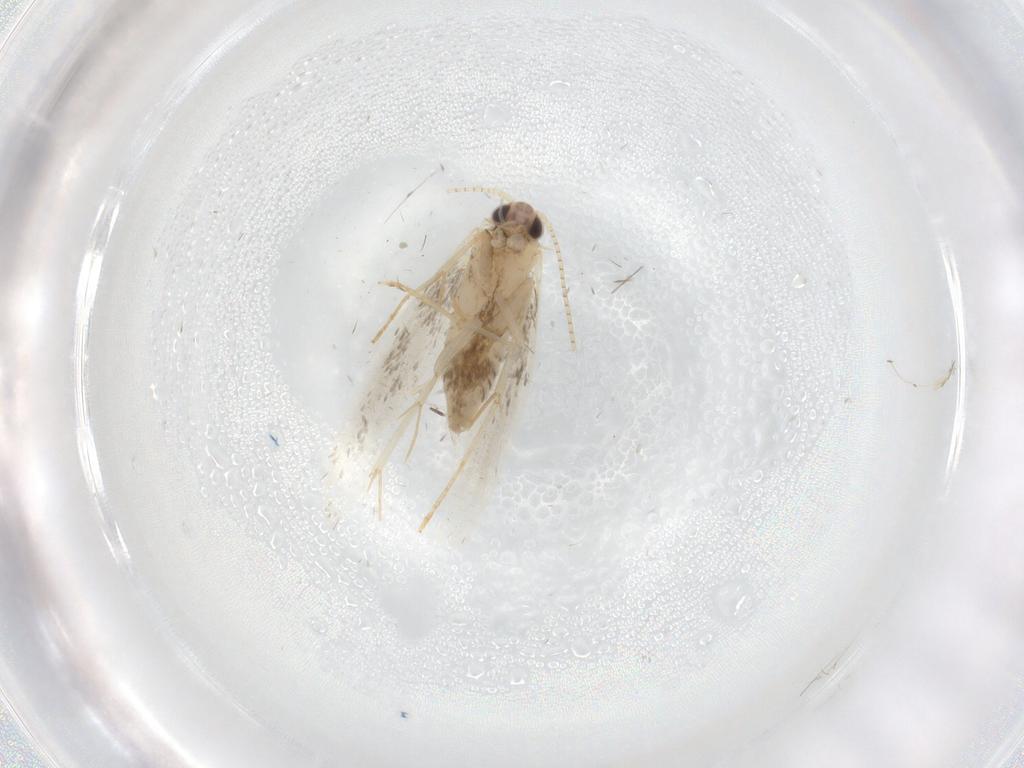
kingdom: Animalia
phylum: Arthropoda
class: Insecta
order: Lepidoptera
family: Tineidae
